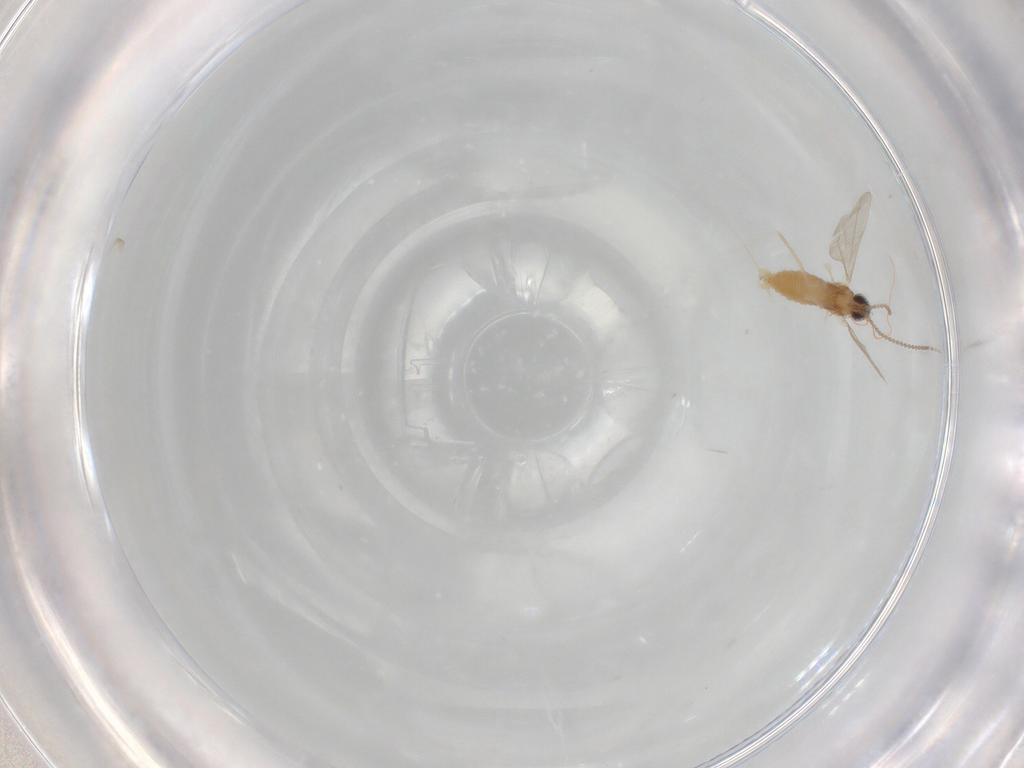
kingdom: Animalia
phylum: Arthropoda
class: Insecta
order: Diptera
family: Cecidomyiidae
